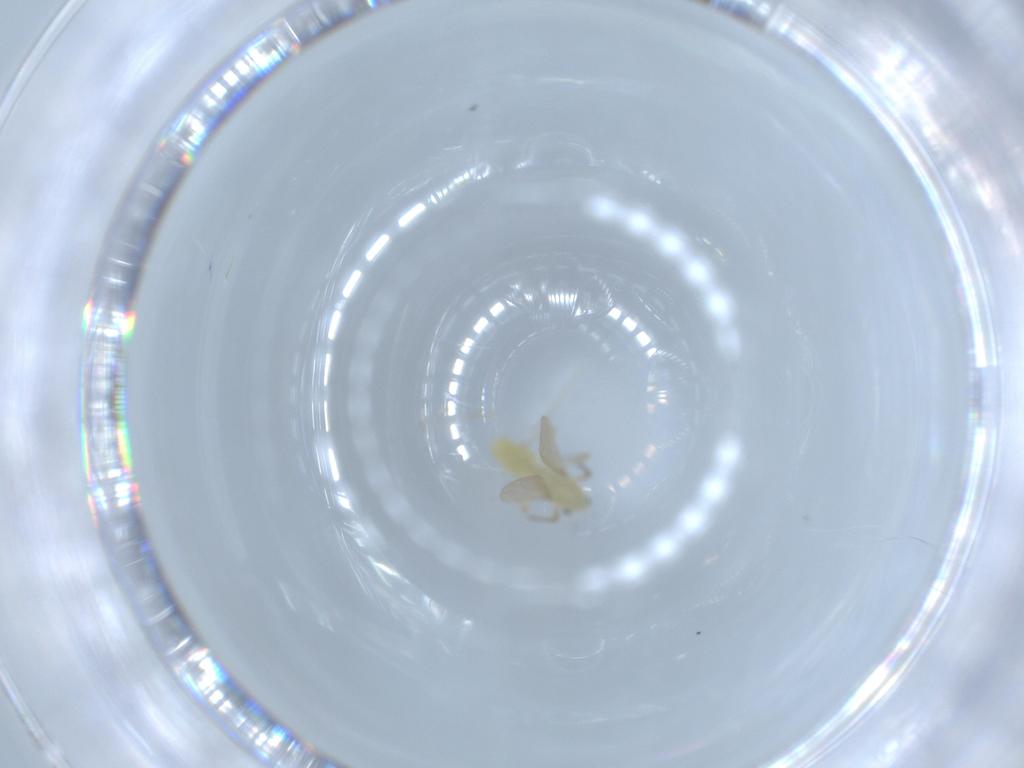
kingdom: Animalia
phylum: Arthropoda
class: Insecta
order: Diptera
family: Chironomidae
